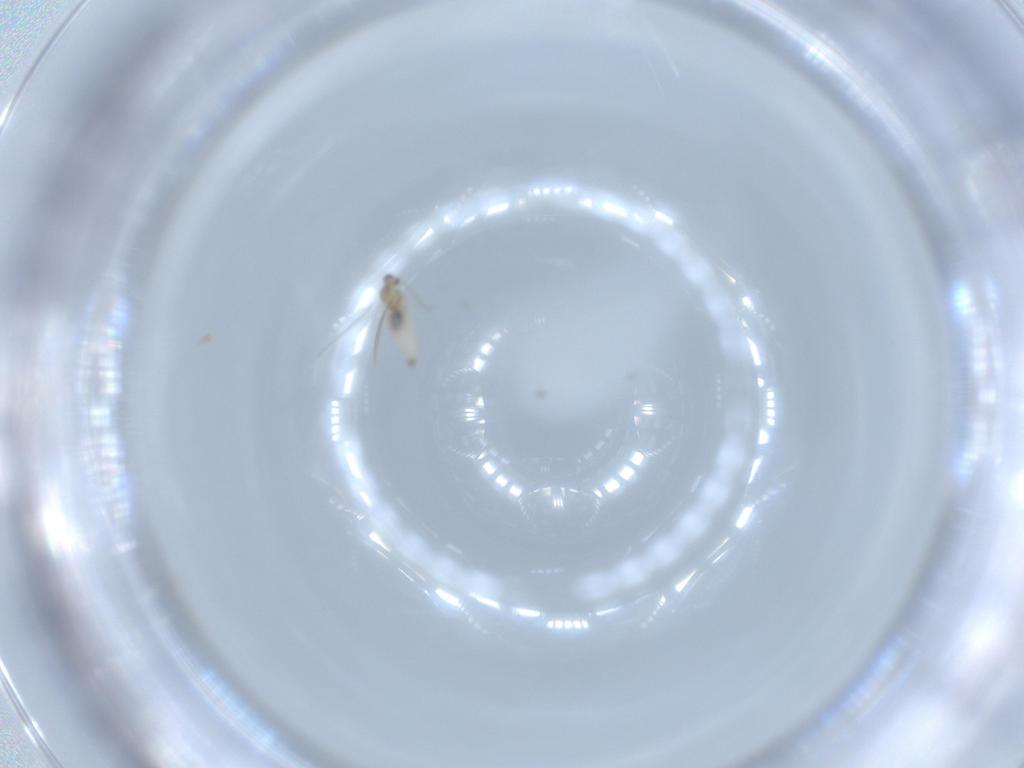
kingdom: Animalia
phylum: Arthropoda
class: Insecta
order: Diptera
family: Cecidomyiidae
